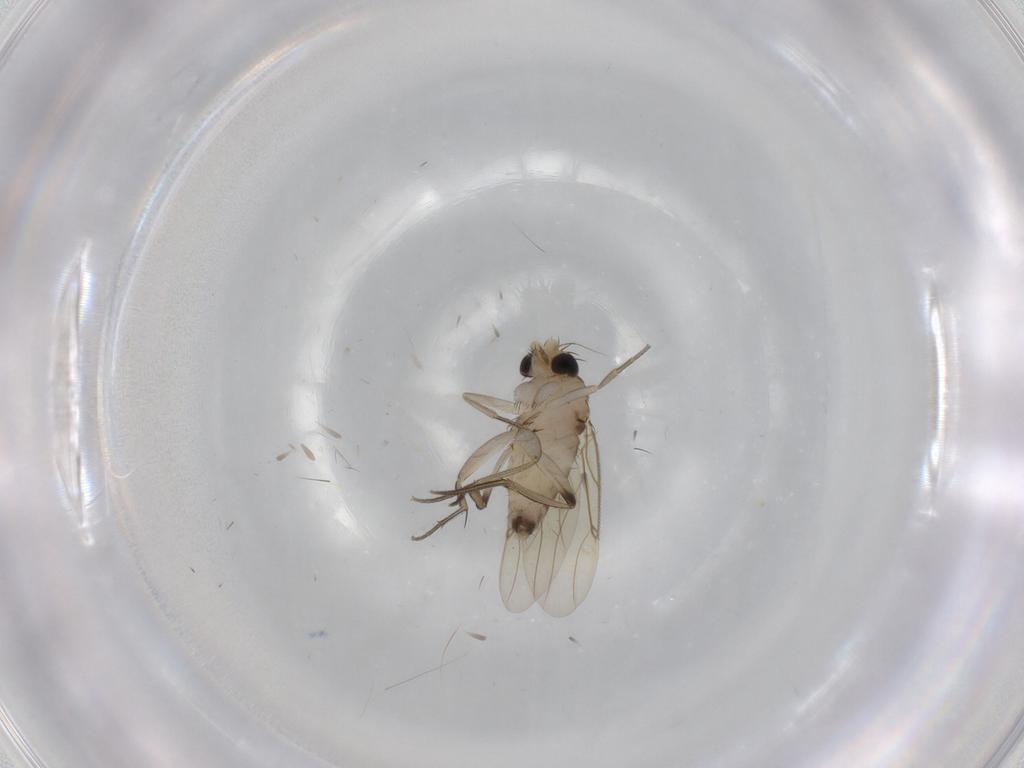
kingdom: Animalia
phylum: Arthropoda
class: Insecta
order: Diptera
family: Phoridae
